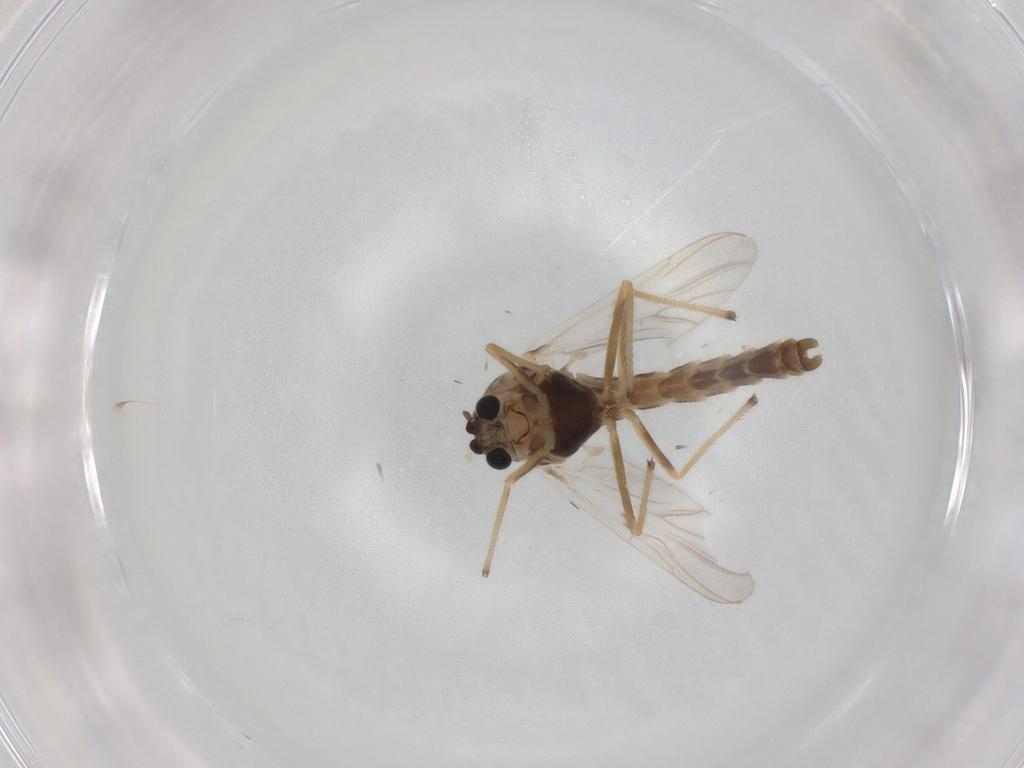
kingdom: Animalia
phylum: Arthropoda
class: Insecta
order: Diptera
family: Chironomidae
